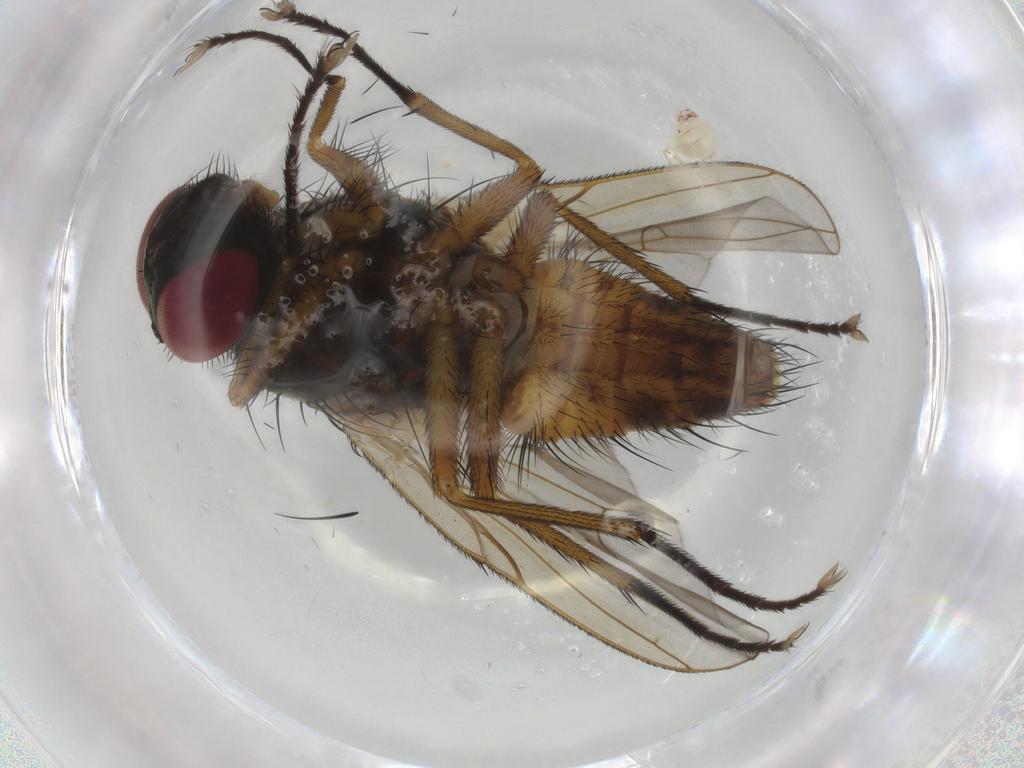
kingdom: Animalia
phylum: Arthropoda
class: Insecta
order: Diptera
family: Muscidae
